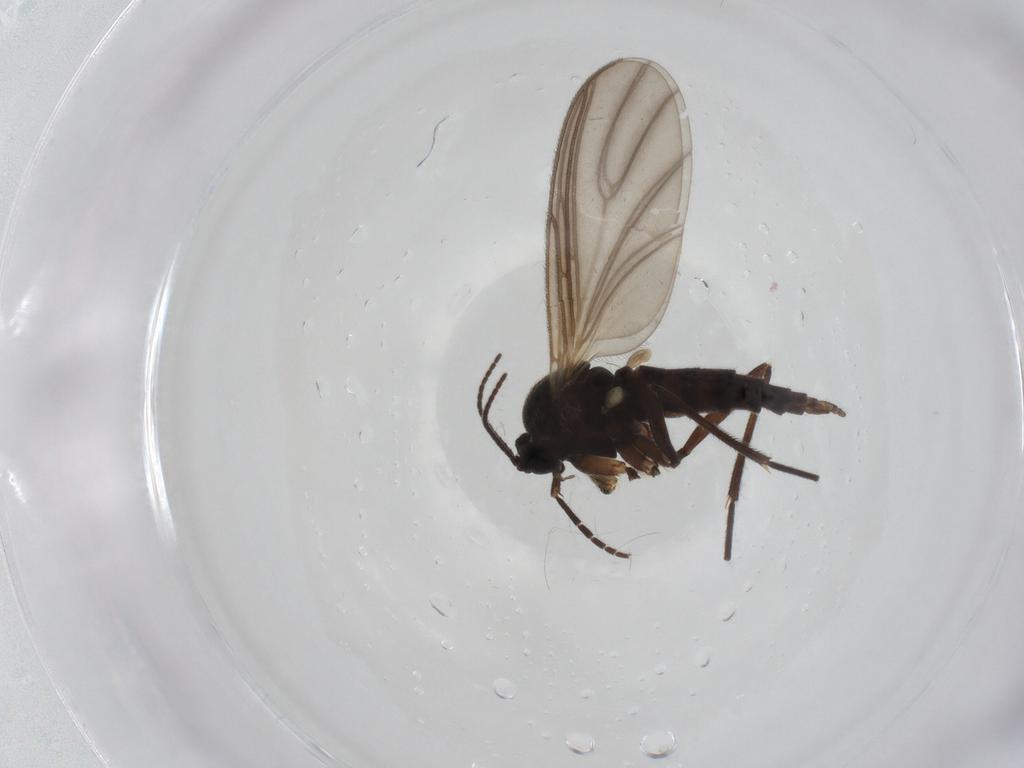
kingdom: Animalia
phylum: Arthropoda
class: Insecta
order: Diptera
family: Sciaridae
